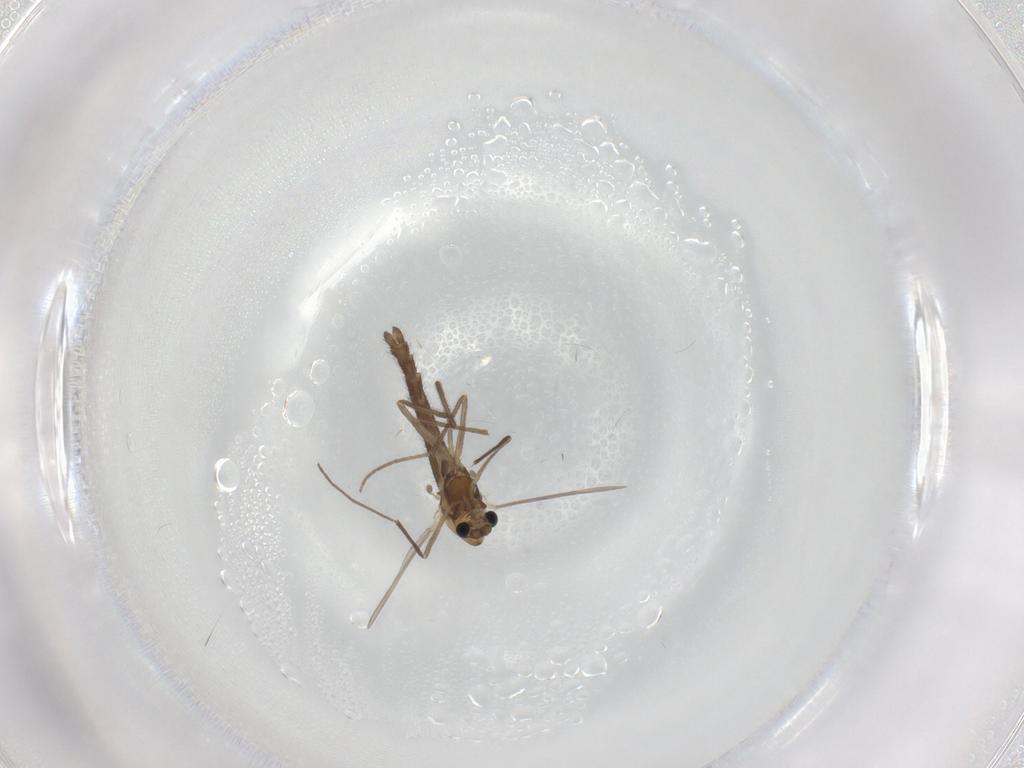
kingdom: Animalia
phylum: Arthropoda
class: Insecta
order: Diptera
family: Chironomidae
